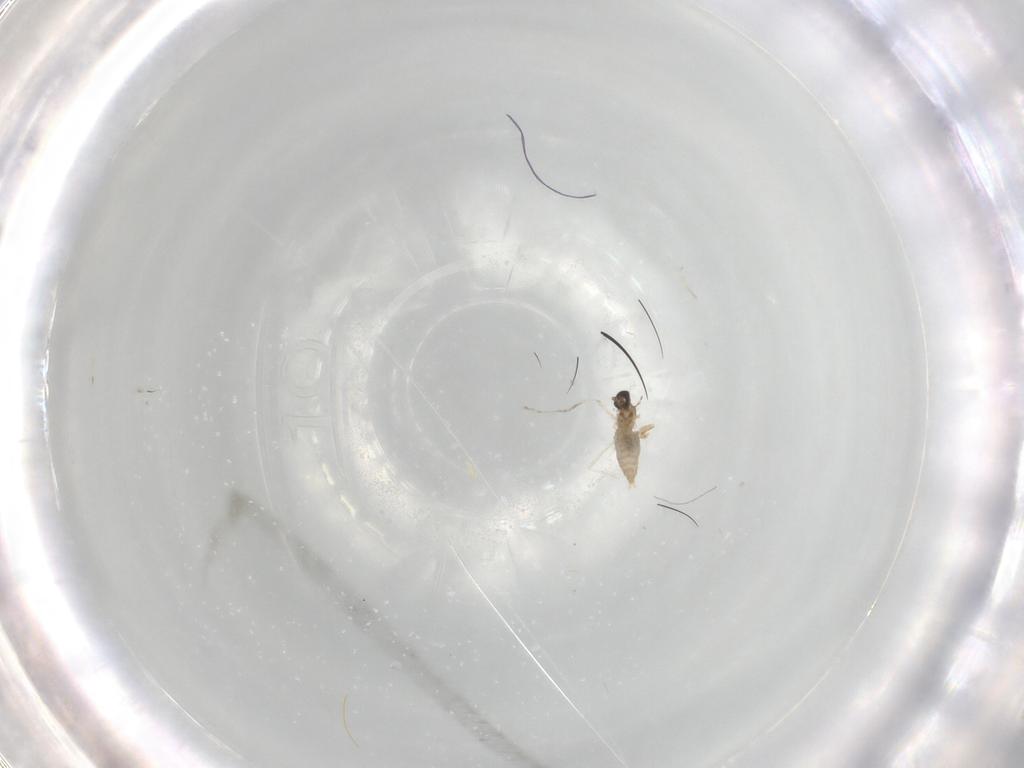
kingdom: Animalia
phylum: Arthropoda
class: Insecta
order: Diptera
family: Cecidomyiidae
